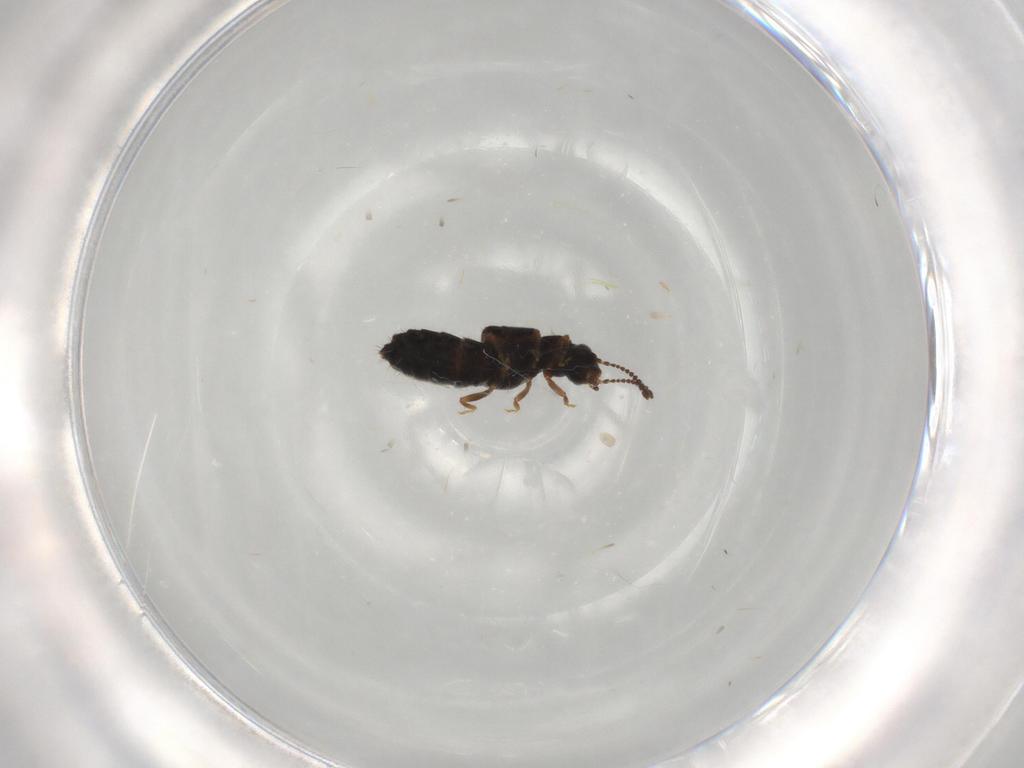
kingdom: Animalia
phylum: Arthropoda
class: Insecta
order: Coleoptera
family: Staphylinidae
